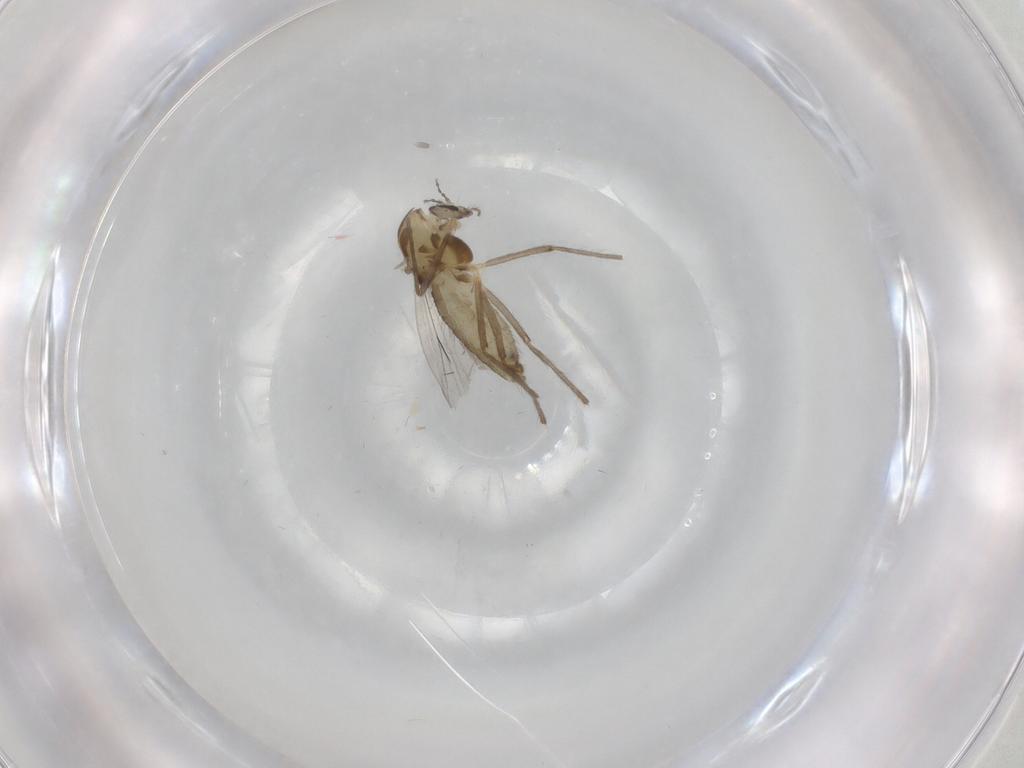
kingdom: Animalia
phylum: Arthropoda
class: Insecta
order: Diptera
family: Chironomidae
